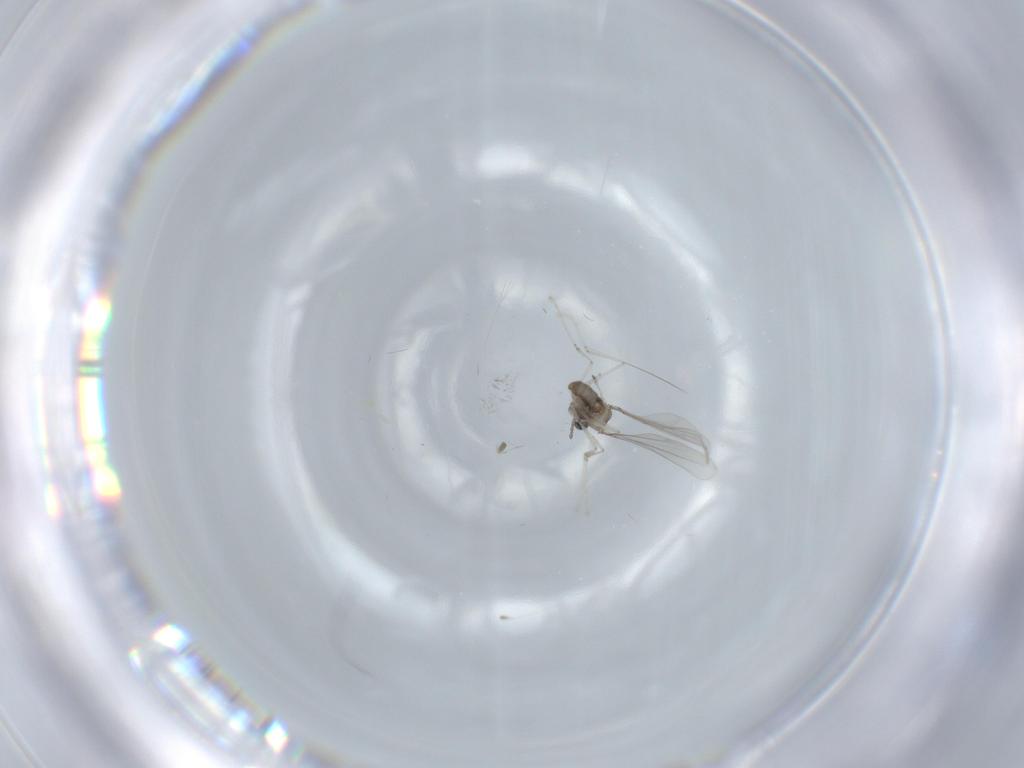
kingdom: Animalia
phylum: Arthropoda
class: Insecta
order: Diptera
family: Cecidomyiidae
